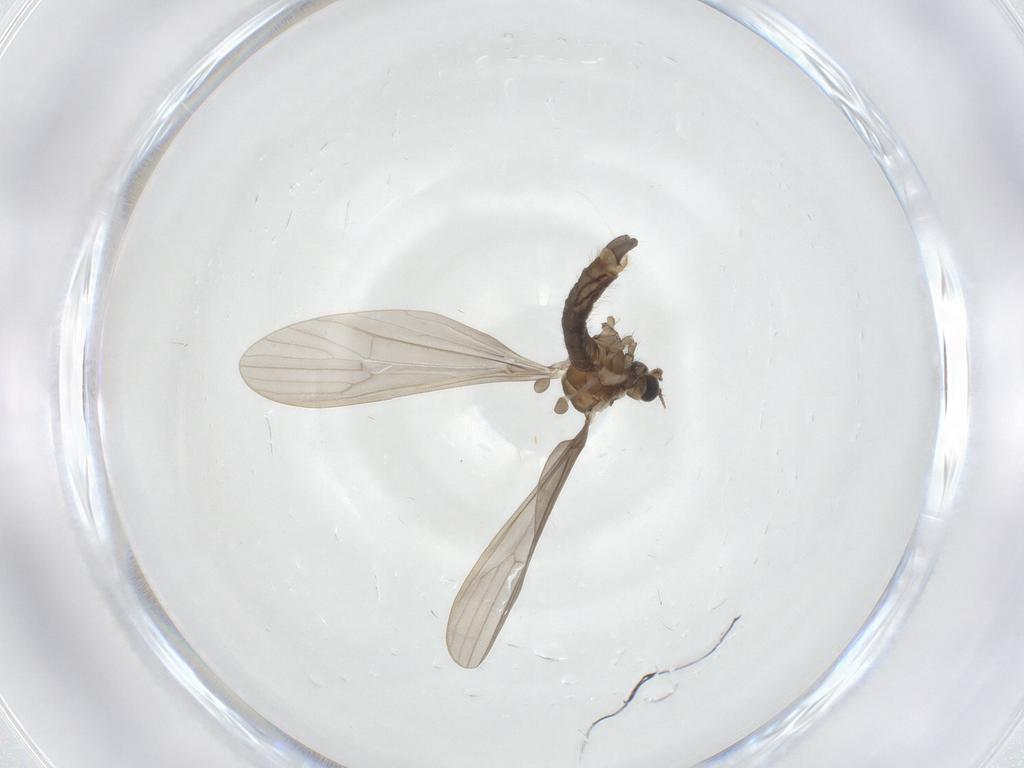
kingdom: Animalia
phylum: Arthropoda
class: Insecta
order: Diptera
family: Limoniidae
